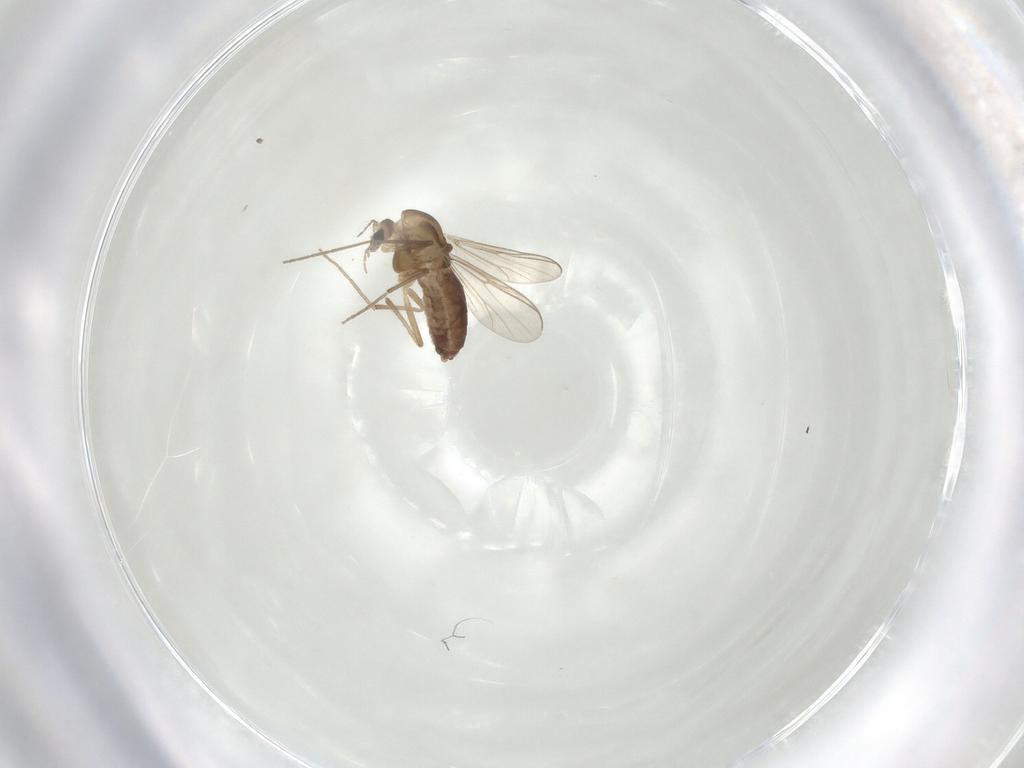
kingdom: Animalia
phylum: Arthropoda
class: Insecta
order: Diptera
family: Chironomidae
